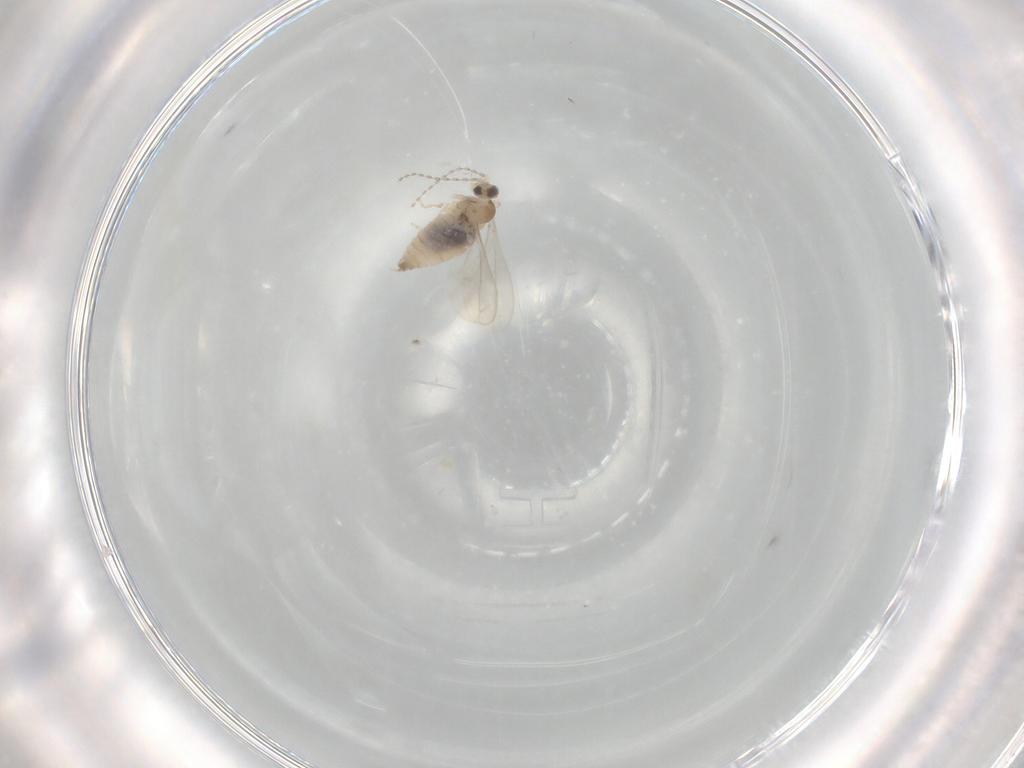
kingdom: Animalia
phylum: Arthropoda
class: Insecta
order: Diptera
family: Cecidomyiidae
